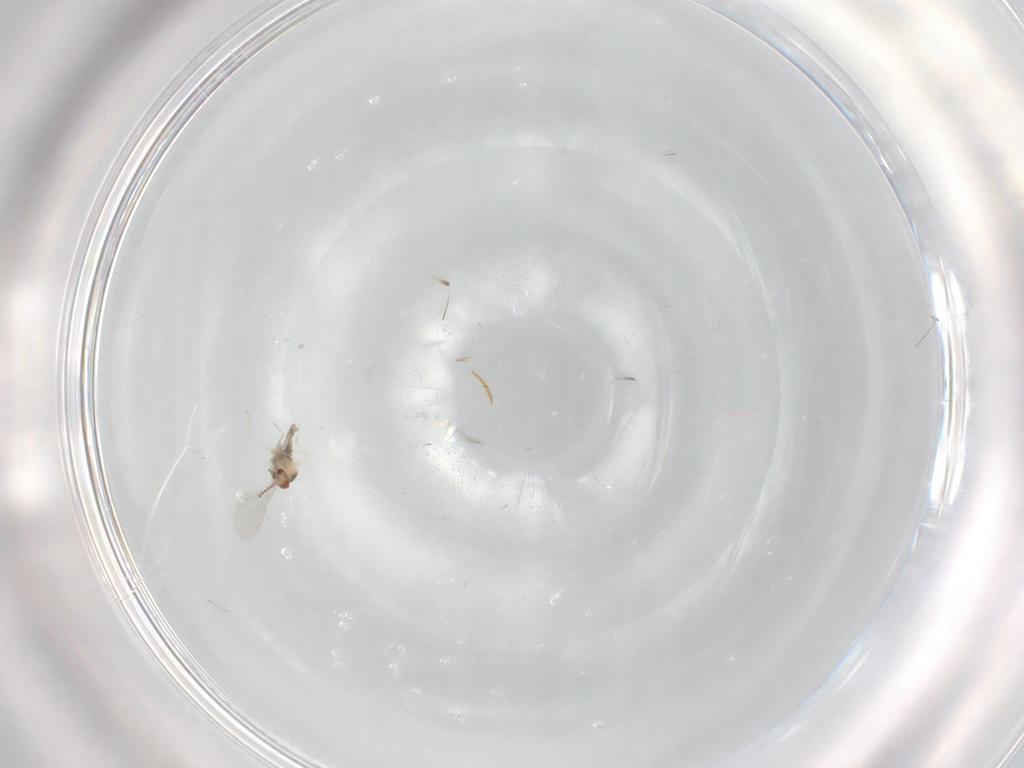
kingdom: Animalia
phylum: Arthropoda
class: Insecta
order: Diptera
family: Cecidomyiidae
